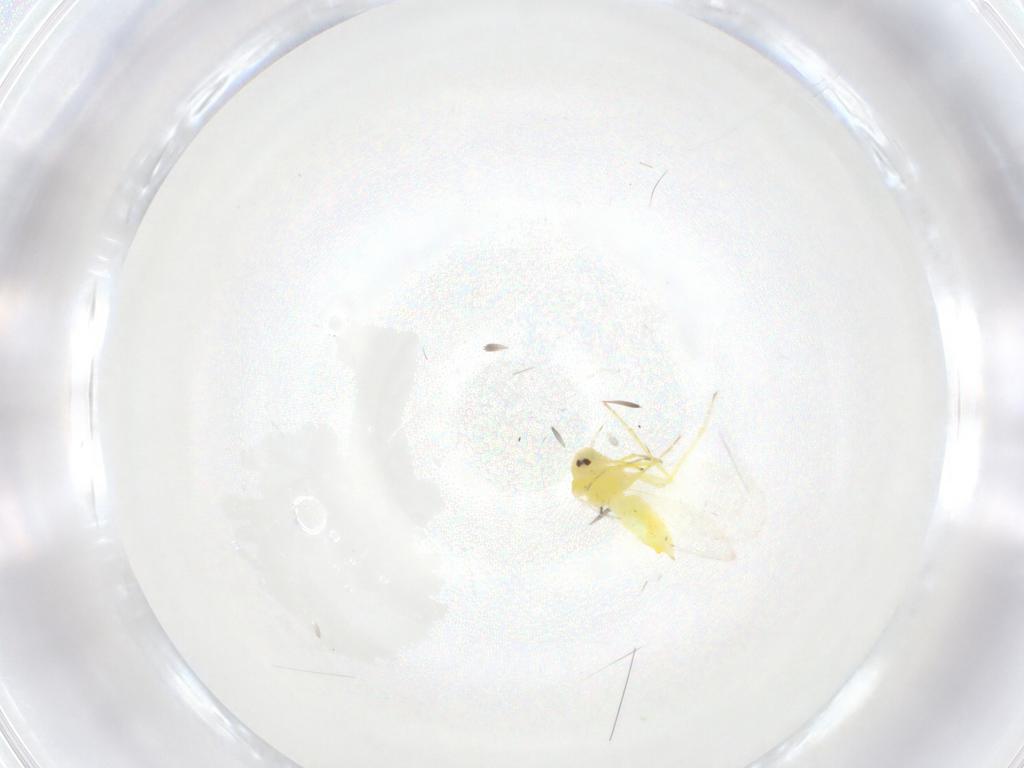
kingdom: Animalia
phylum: Arthropoda
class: Insecta
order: Hemiptera
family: Aleyrodidae
